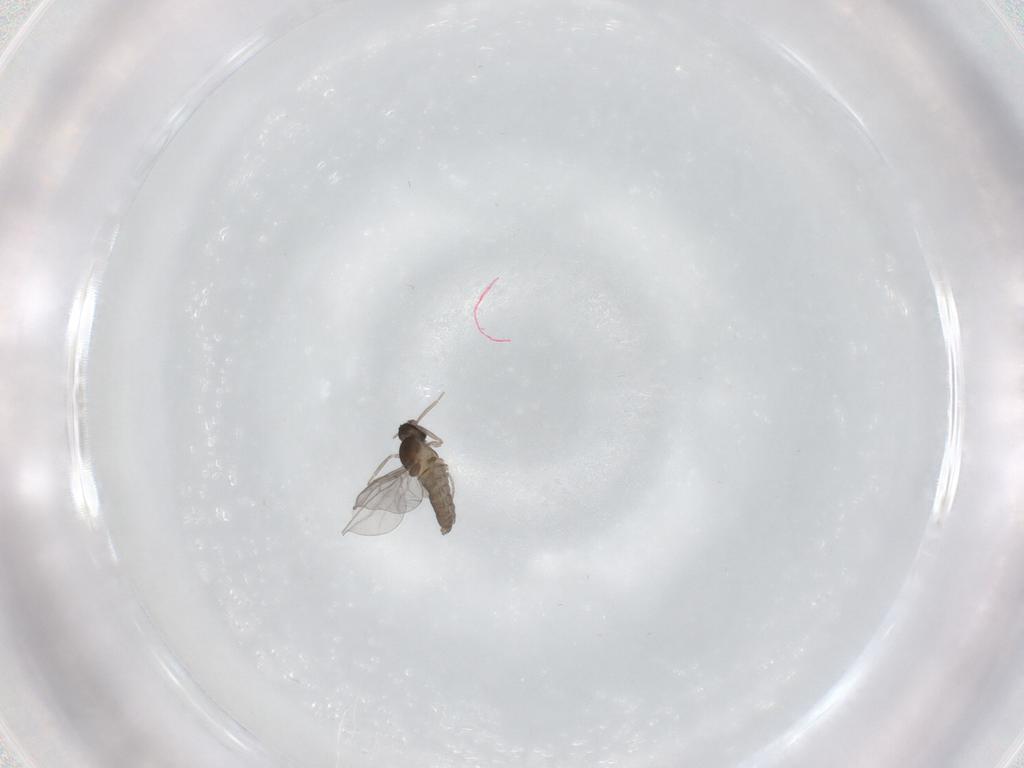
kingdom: Animalia
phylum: Arthropoda
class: Insecta
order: Diptera
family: Cecidomyiidae
